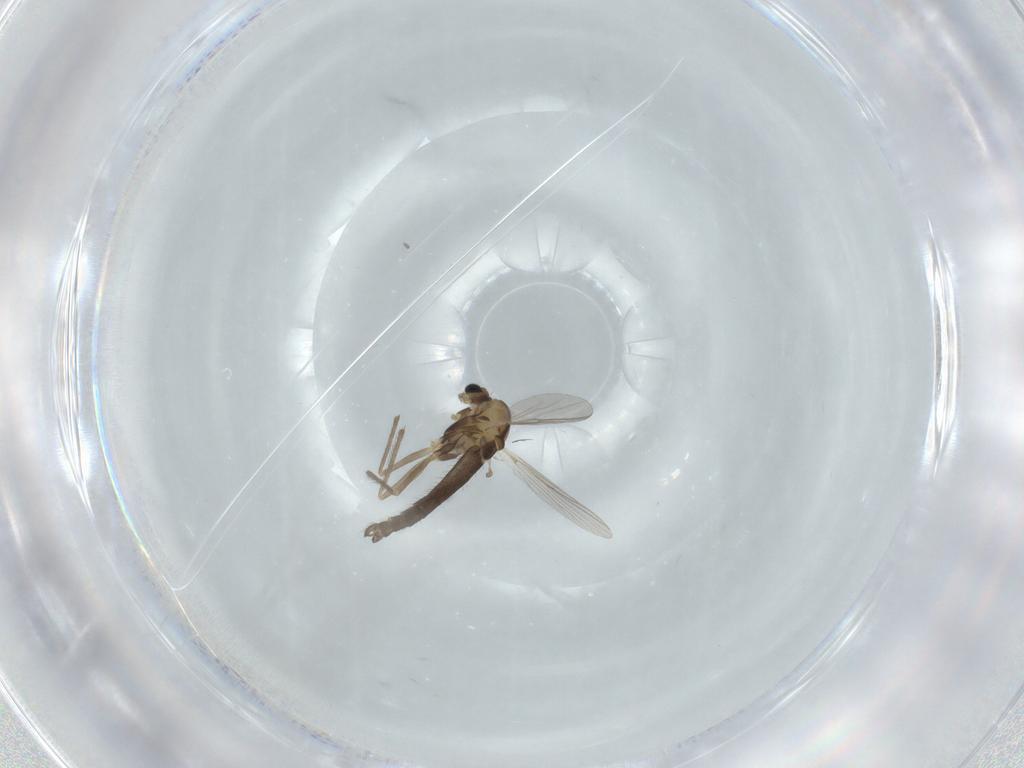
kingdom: Animalia
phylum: Arthropoda
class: Insecta
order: Diptera
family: Chironomidae
